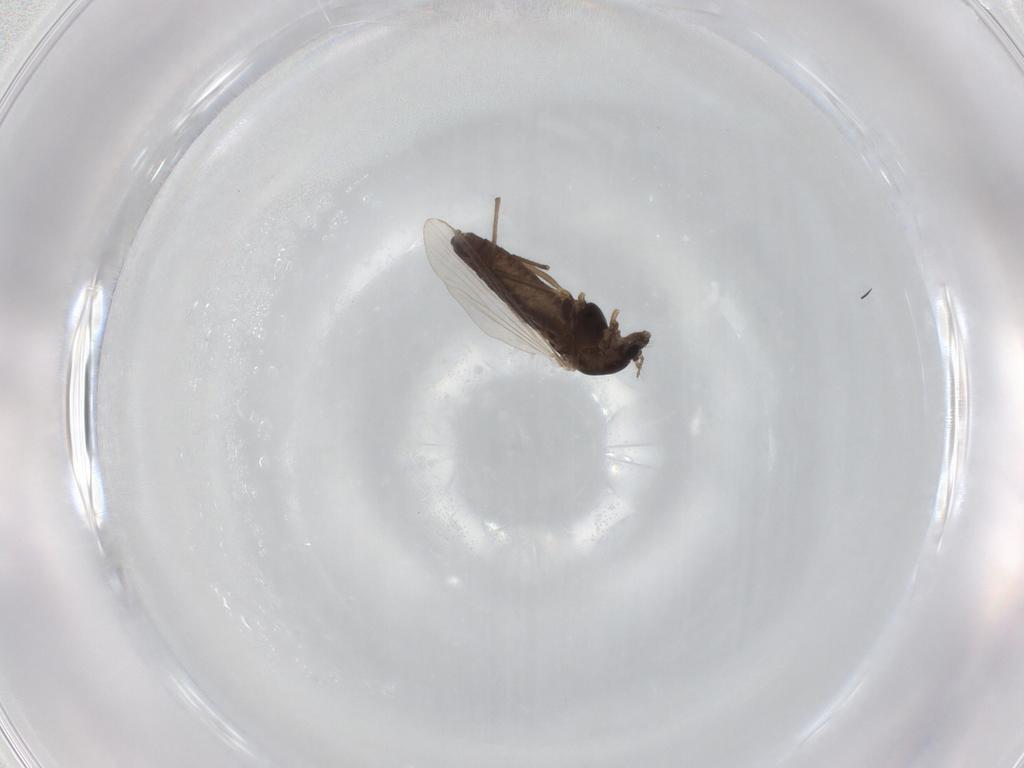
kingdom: Animalia
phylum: Arthropoda
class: Insecta
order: Diptera
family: Chironomidae
